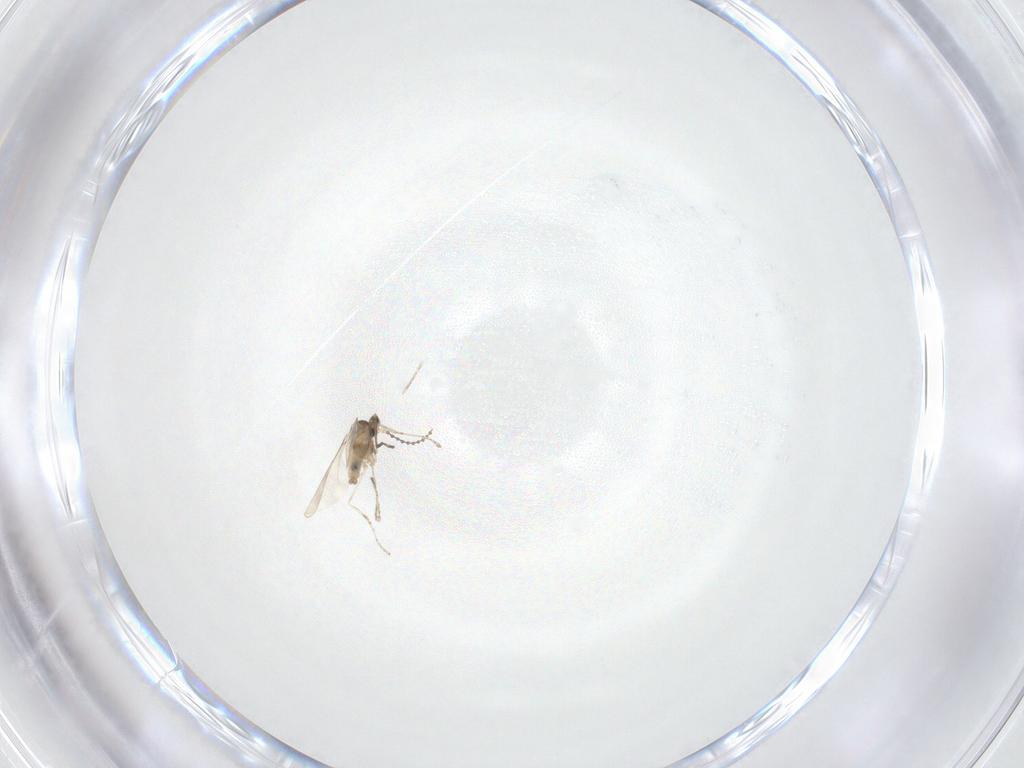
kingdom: Animalia
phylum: Arthropoda
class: Insecta
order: Diptera
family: Cecidomyiidae
